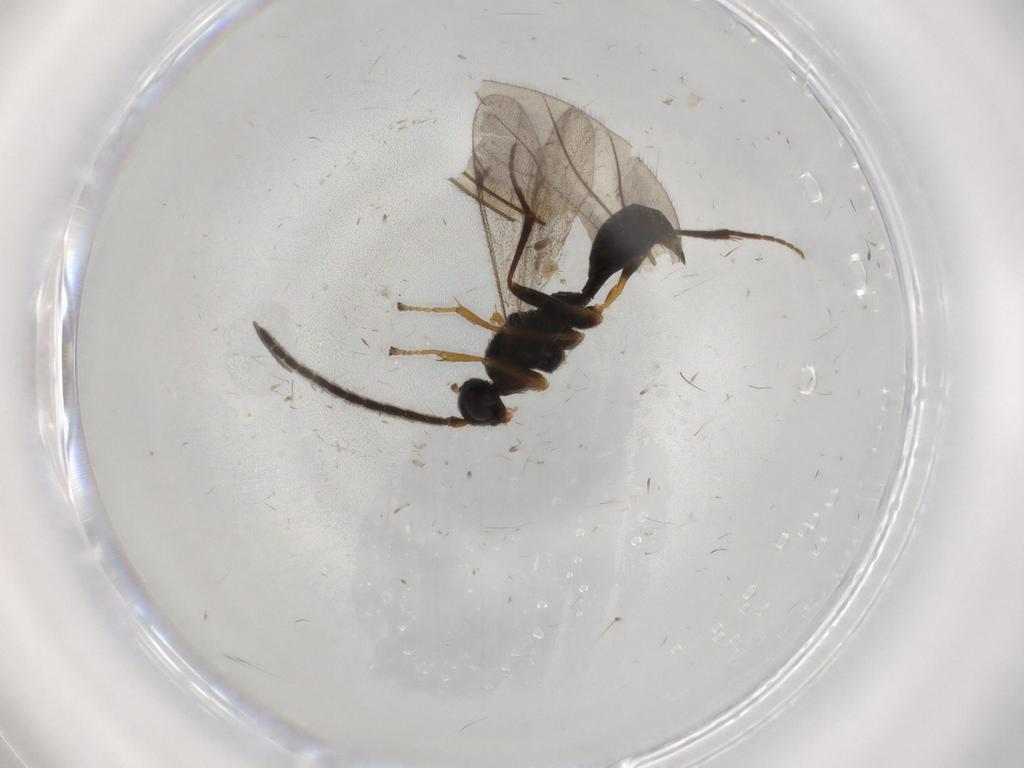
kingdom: Animalia
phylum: Arthropoda
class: Insecta
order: Hymenoptera
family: Proctotrupidae
